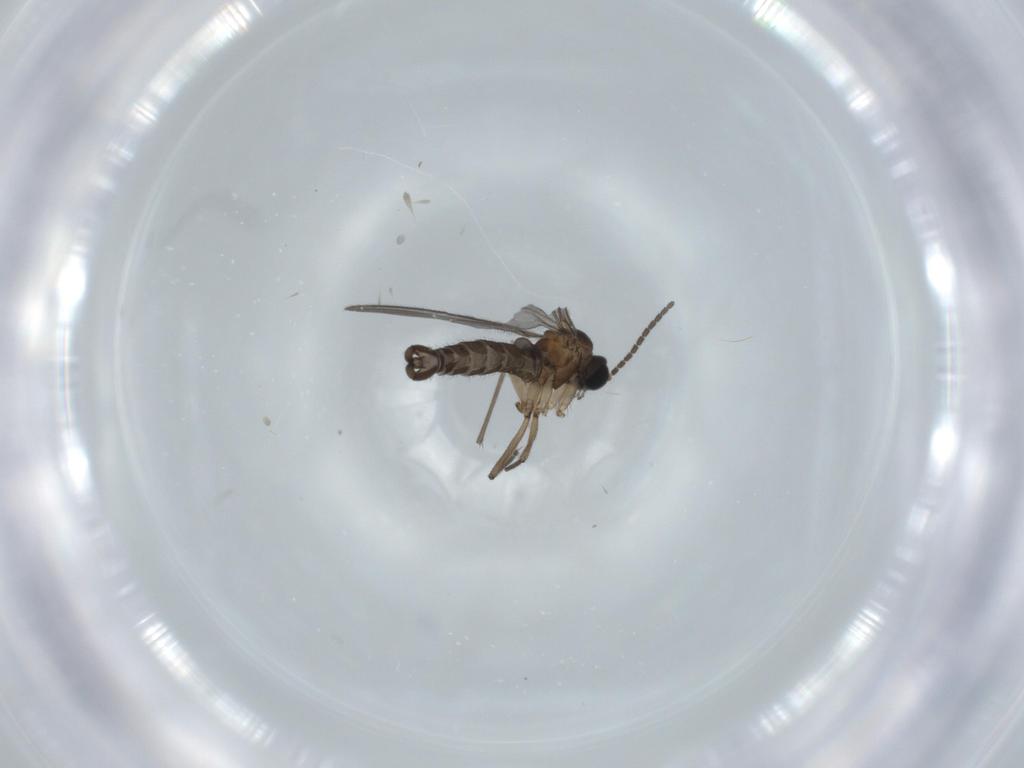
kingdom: Animalia
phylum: Arthropoda
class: Insecta
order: Diptera
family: Sciaridae
